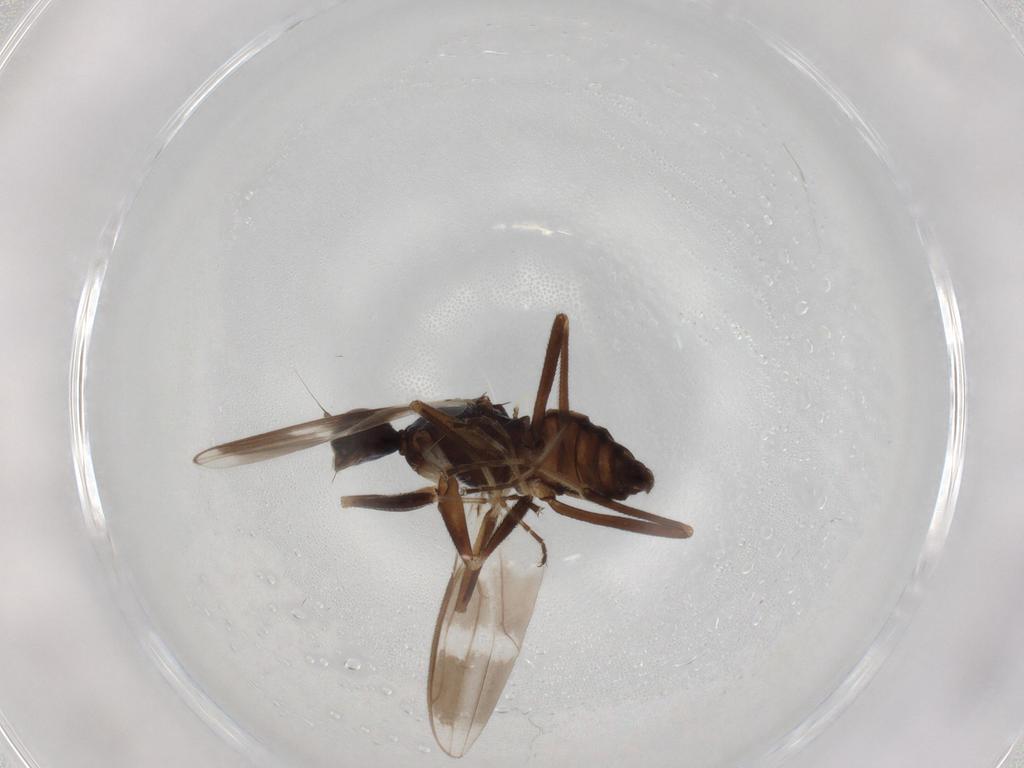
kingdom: Animalia
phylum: Arthropoda
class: Insecta
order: Diptera
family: Hybotidae
